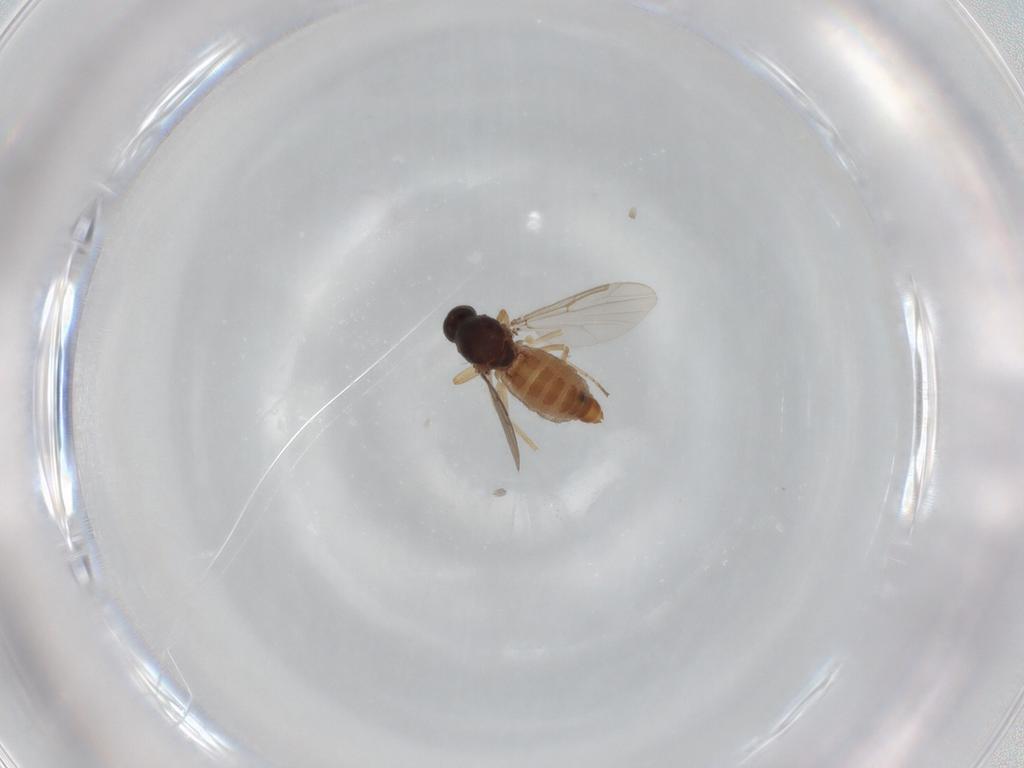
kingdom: Animalia
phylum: Arthropoda
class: Insecta
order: Diptera
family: Ceratopogonidae
